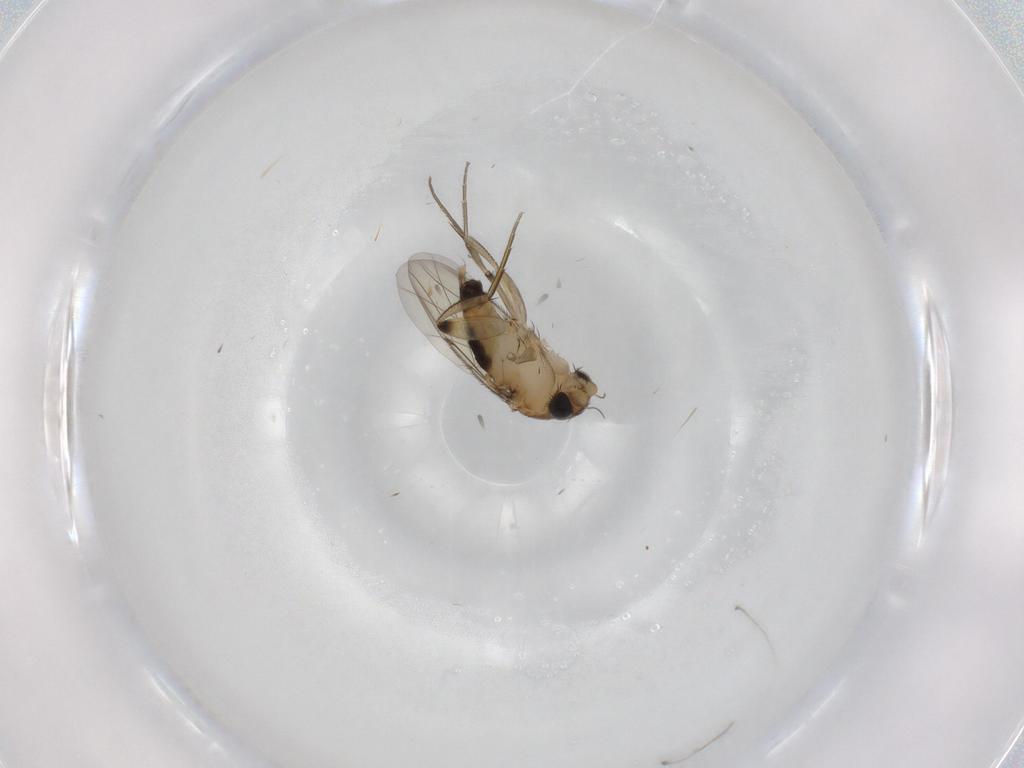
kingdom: Animalia
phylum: Arthropoda
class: Insecta
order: Diptera
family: Phoridae
